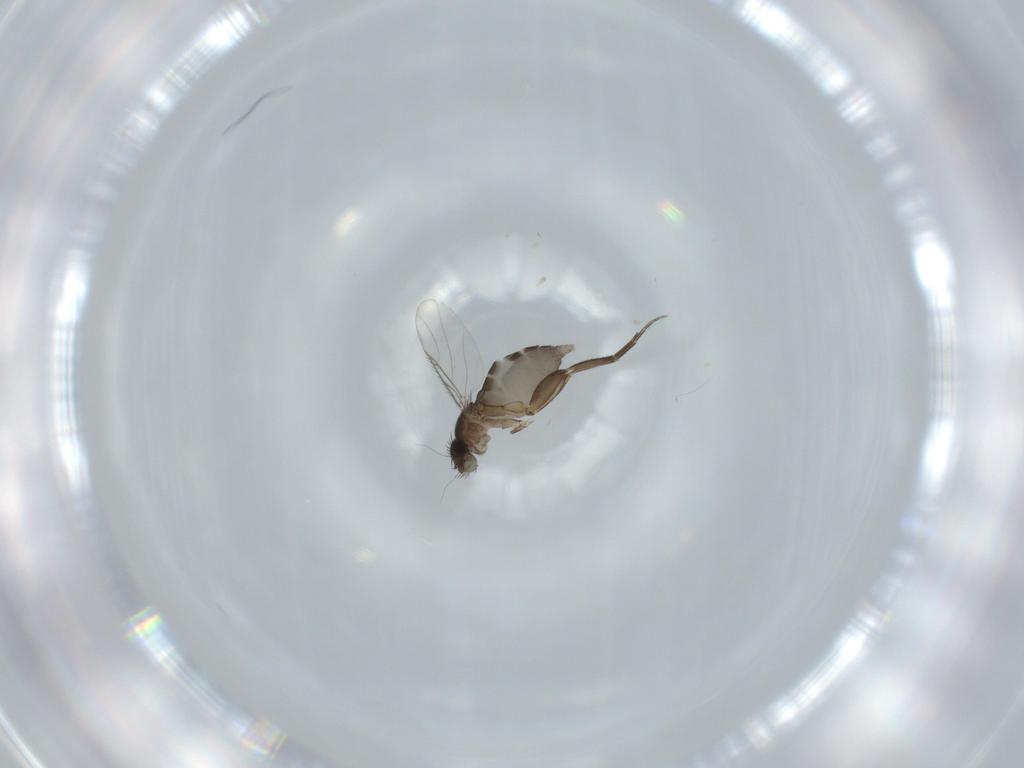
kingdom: Animalia
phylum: Arthropoda
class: Insecta
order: Diptera
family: Phoridae
